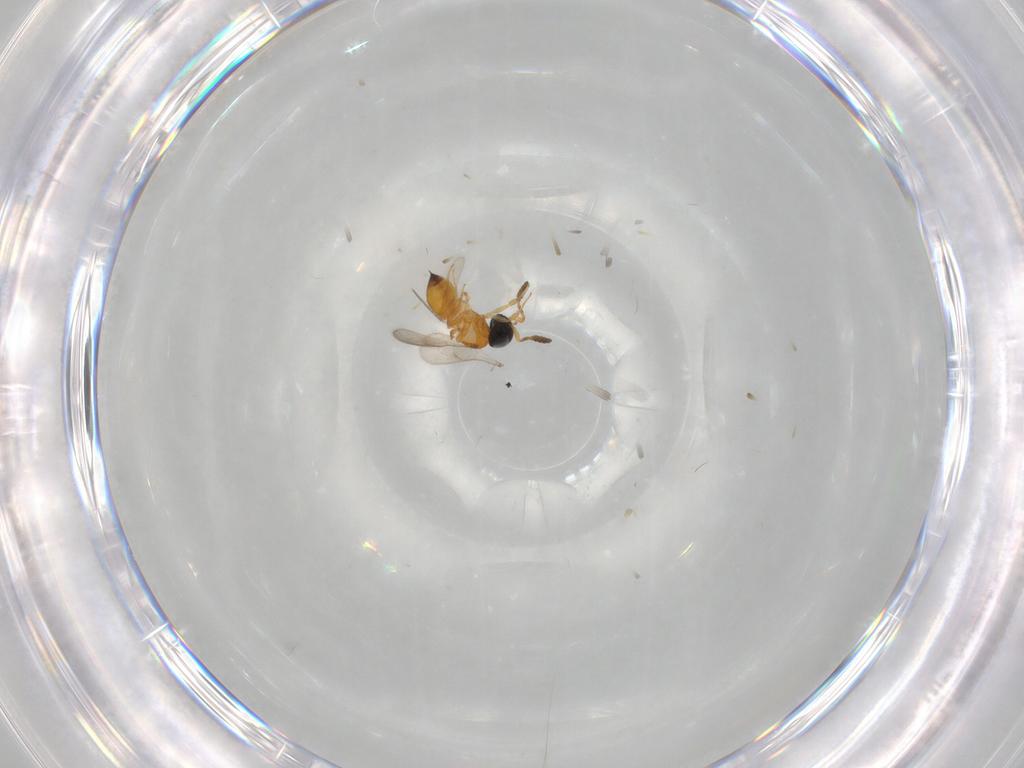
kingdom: Animalia
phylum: Arthropoda
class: Insecta
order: Hymenoptera
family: Scelionidae
